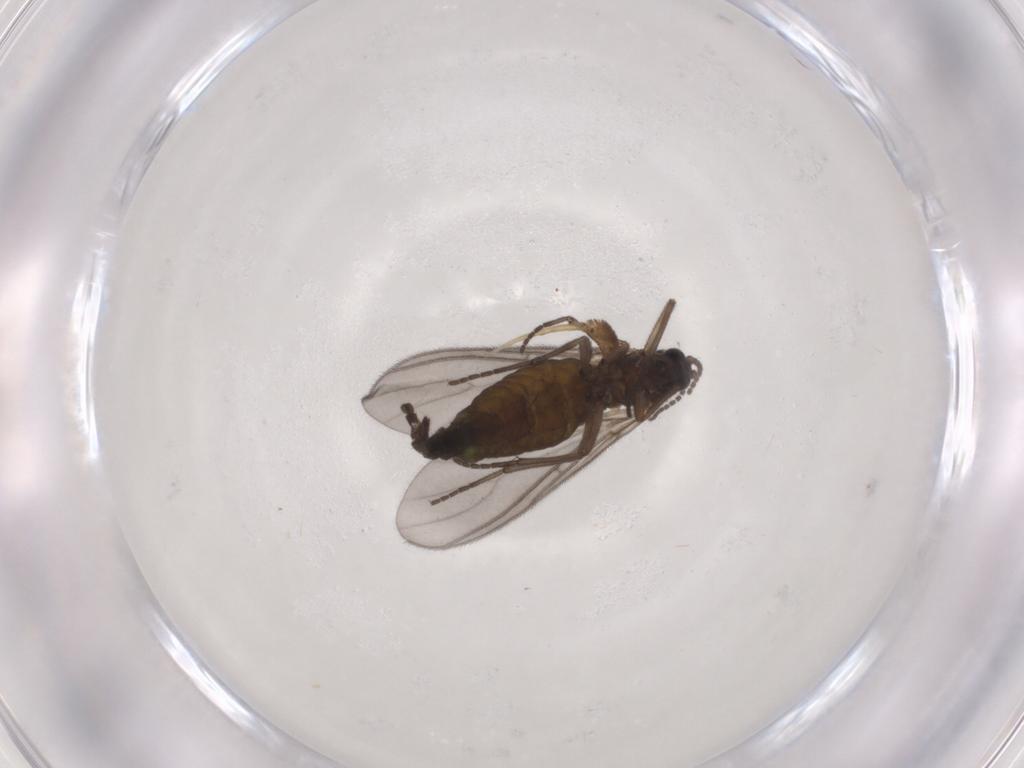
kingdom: Animalia
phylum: Arthropoda
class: Insecta
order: Diptera
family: Sciaridae
